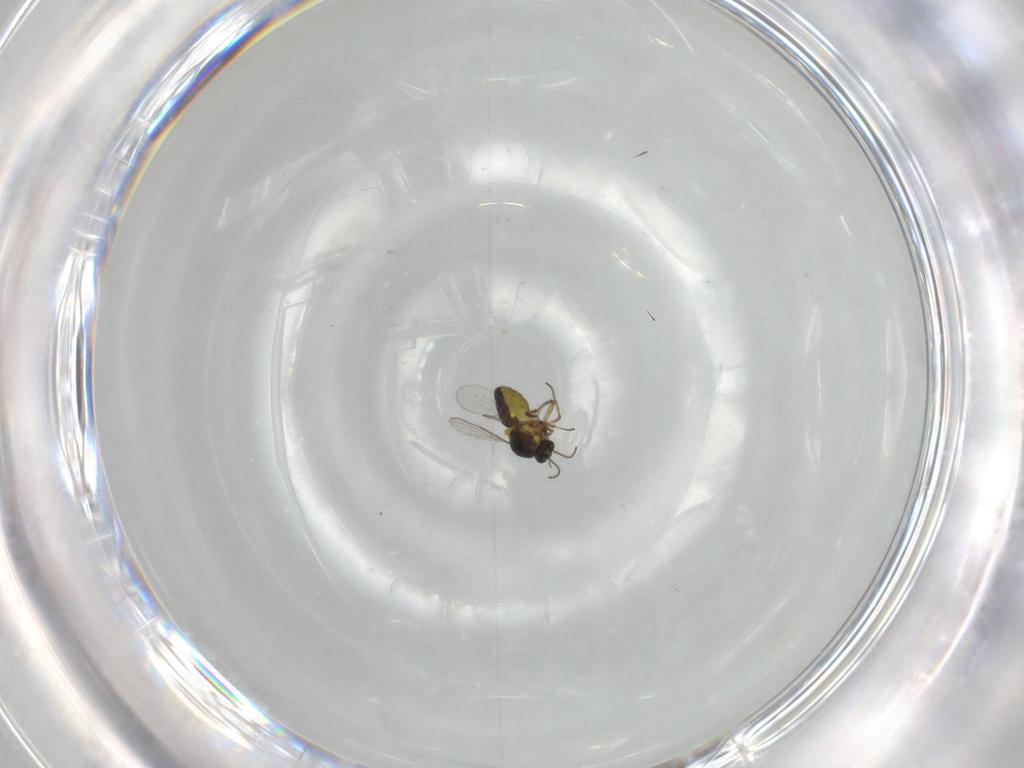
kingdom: Animalia
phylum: Arthropoda
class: Insecta
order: Diptera
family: Ceratopogonidae
